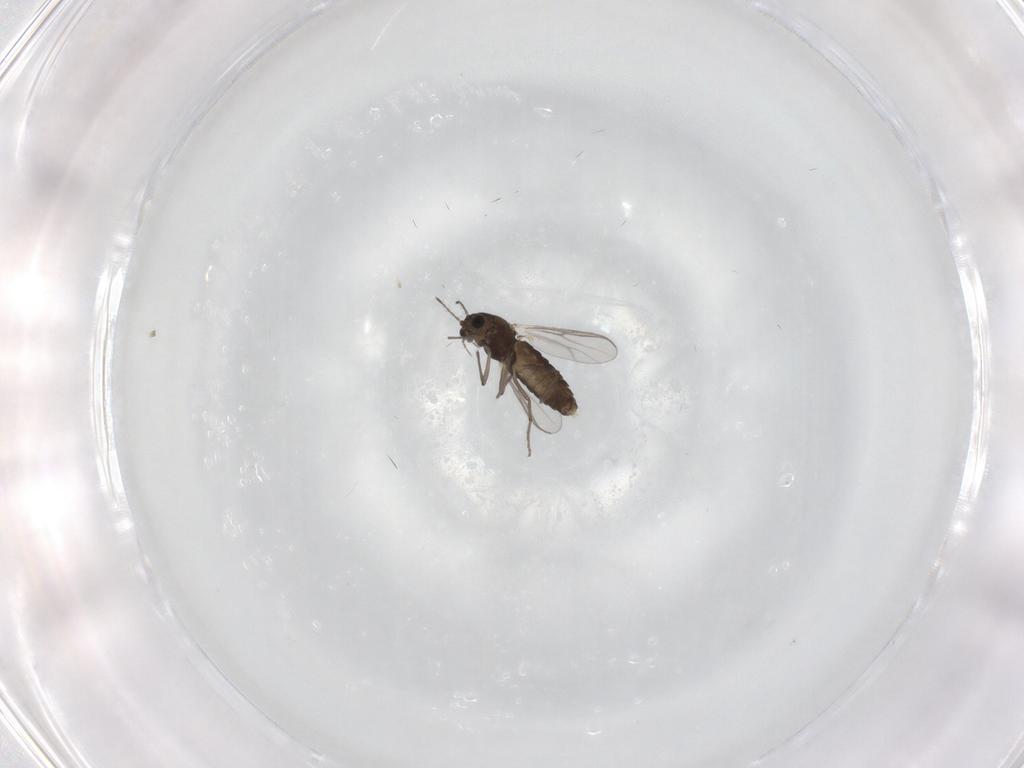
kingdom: Animalia
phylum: Arthropoda
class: Insecta
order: Diptera
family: Chironomidae
